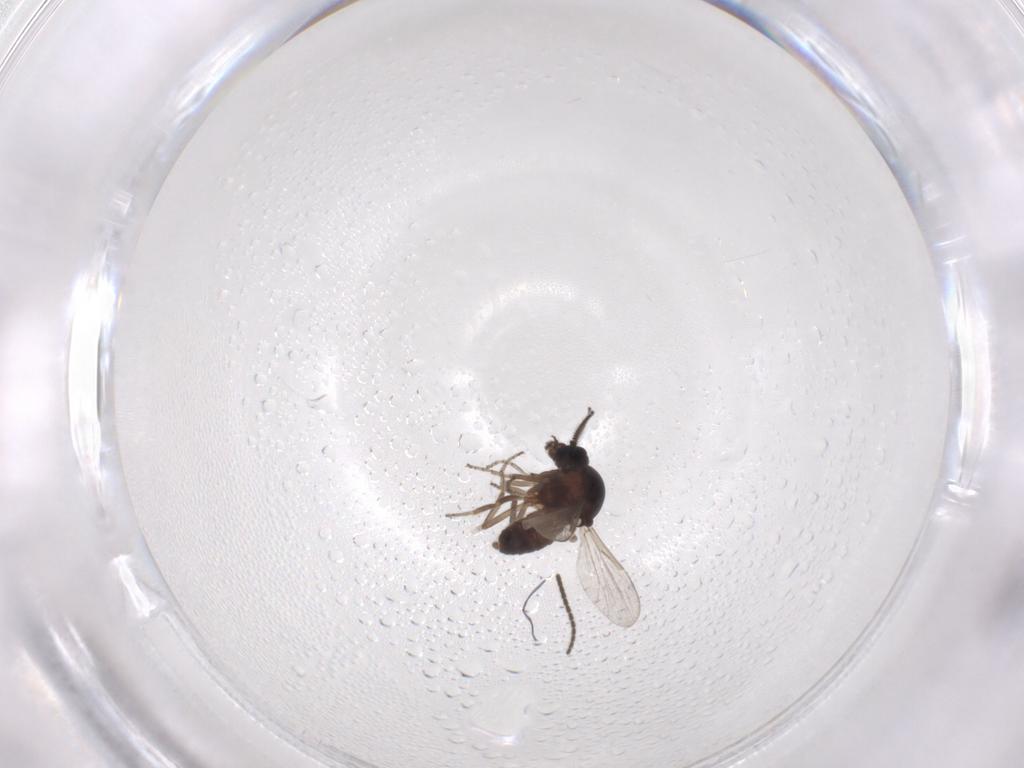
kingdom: Animalia
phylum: Arthropoda
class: Insecta
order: Diptera
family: Ceratopogonidae
